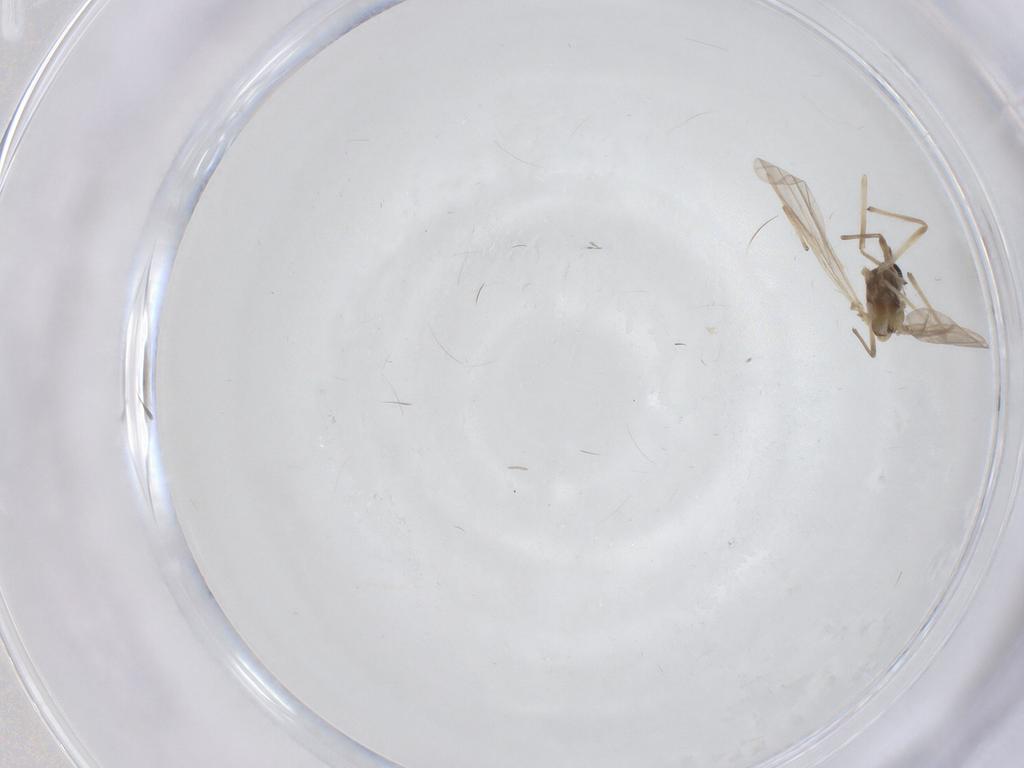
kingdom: Animalia
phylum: Arthropoda
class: Insecta
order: Diptera
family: Chironomidae
